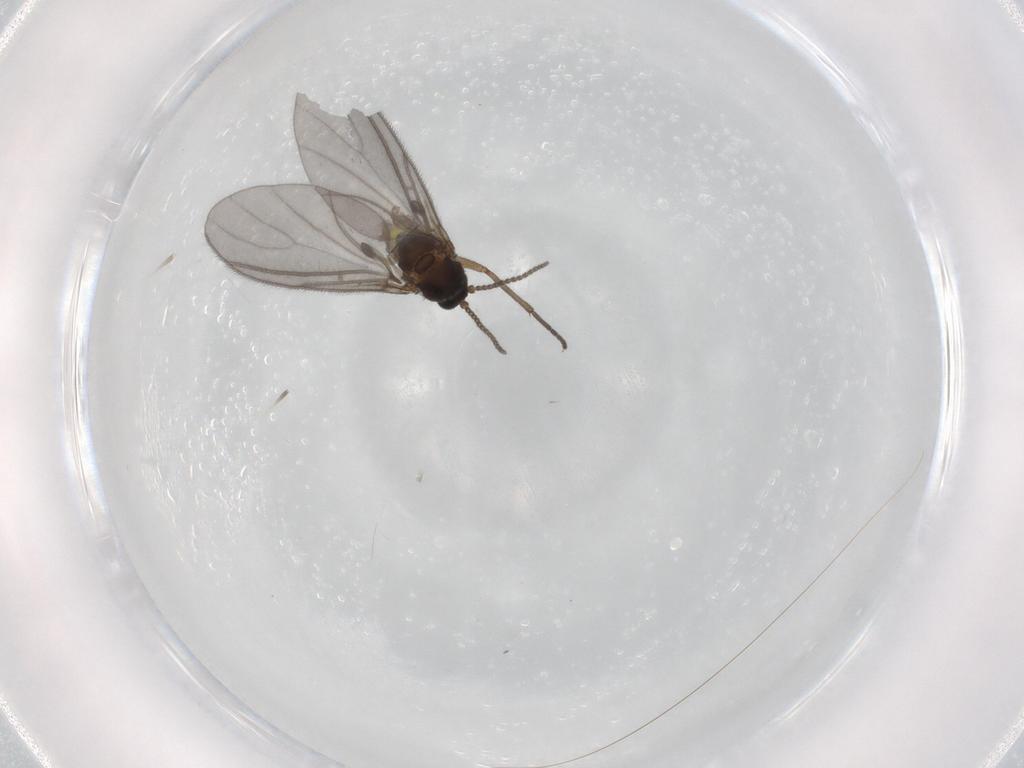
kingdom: Animalia
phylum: Arthropoda
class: Insecta
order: Diptera
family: Sciaridae
